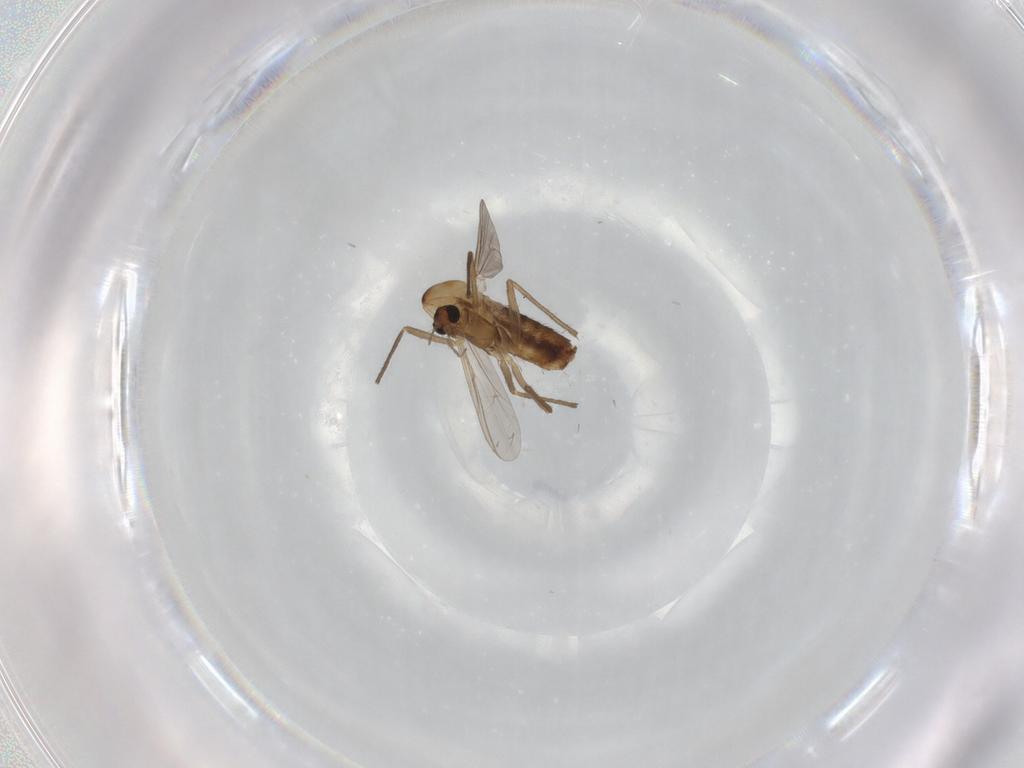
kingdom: Animalia
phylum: Arthropoda
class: Insecta
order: Diptera
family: Chironomidae
